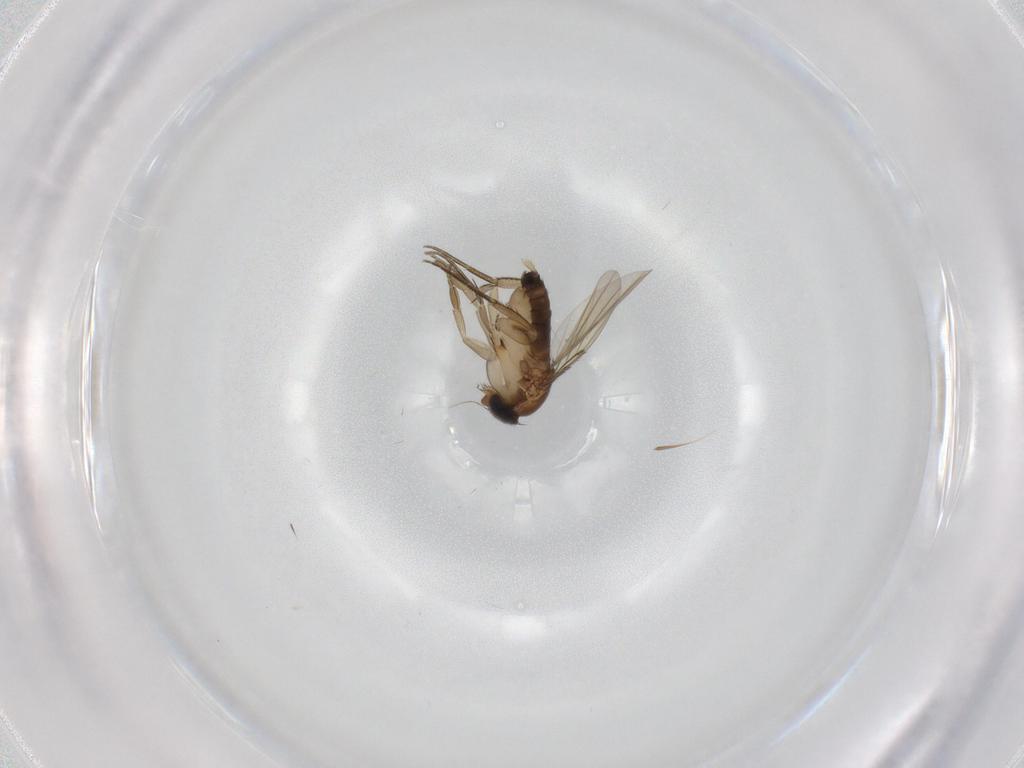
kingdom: Animalia
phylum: Arthropoda
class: Insecta
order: Diptera
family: Phoridae
